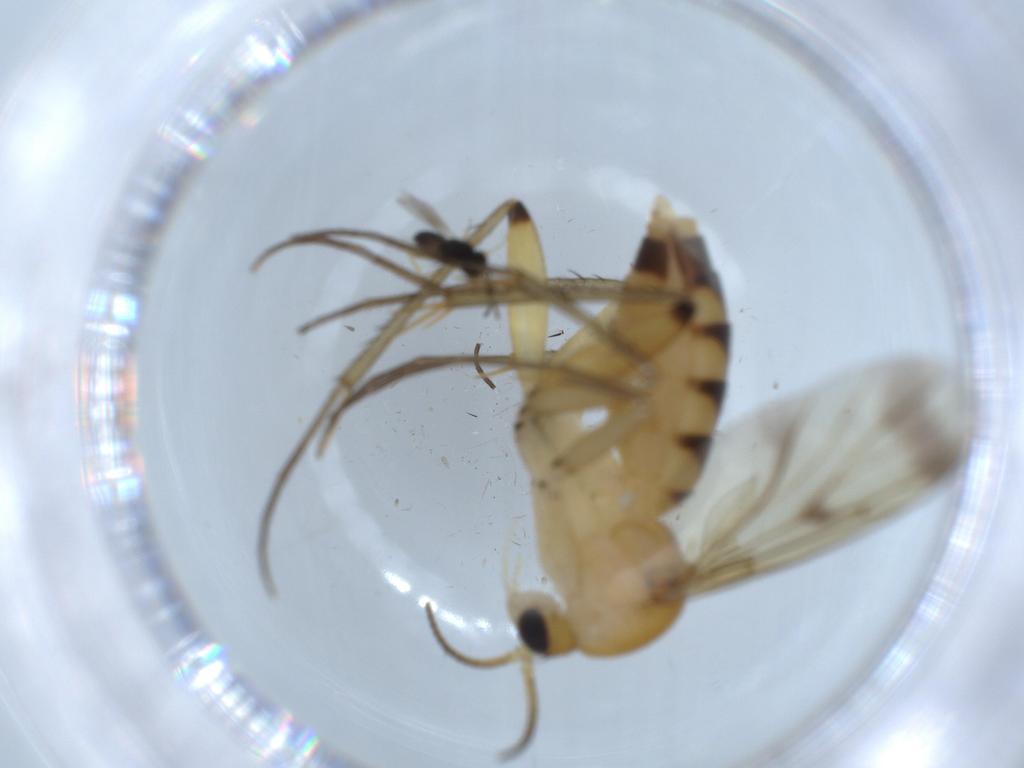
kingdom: Animalia
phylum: Arthropoda
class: Insecta
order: Diptera
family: Mycetophilidae
